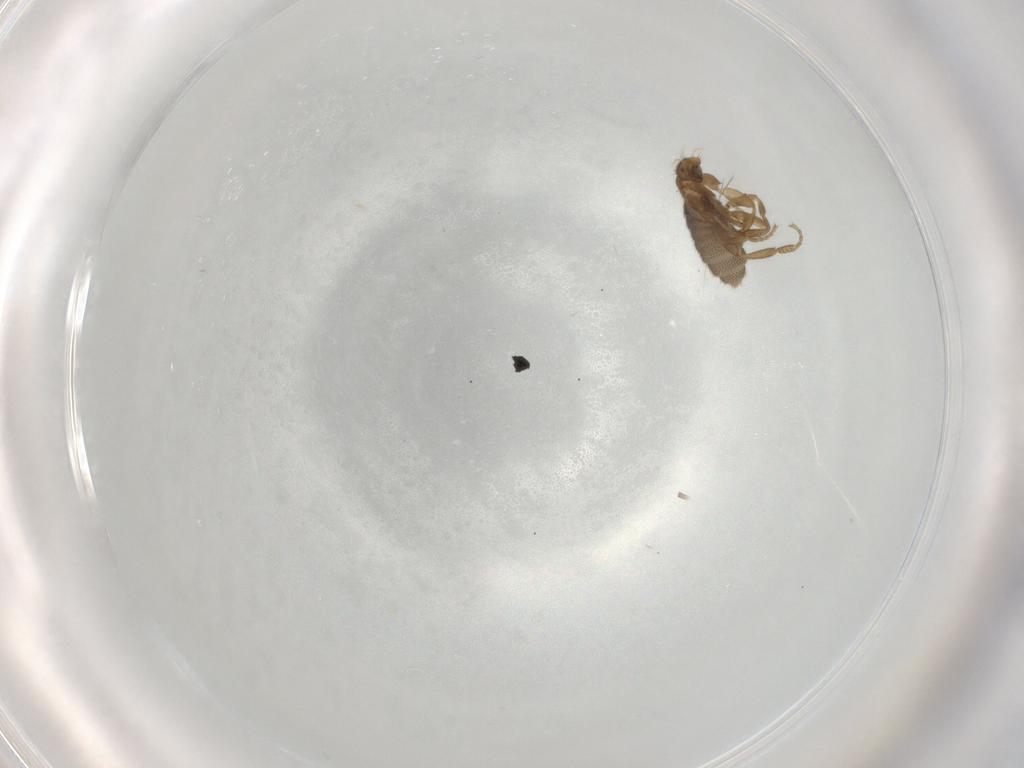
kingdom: Animalia
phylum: Arthropoda
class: Insecta
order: Diptera
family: Phoridae
